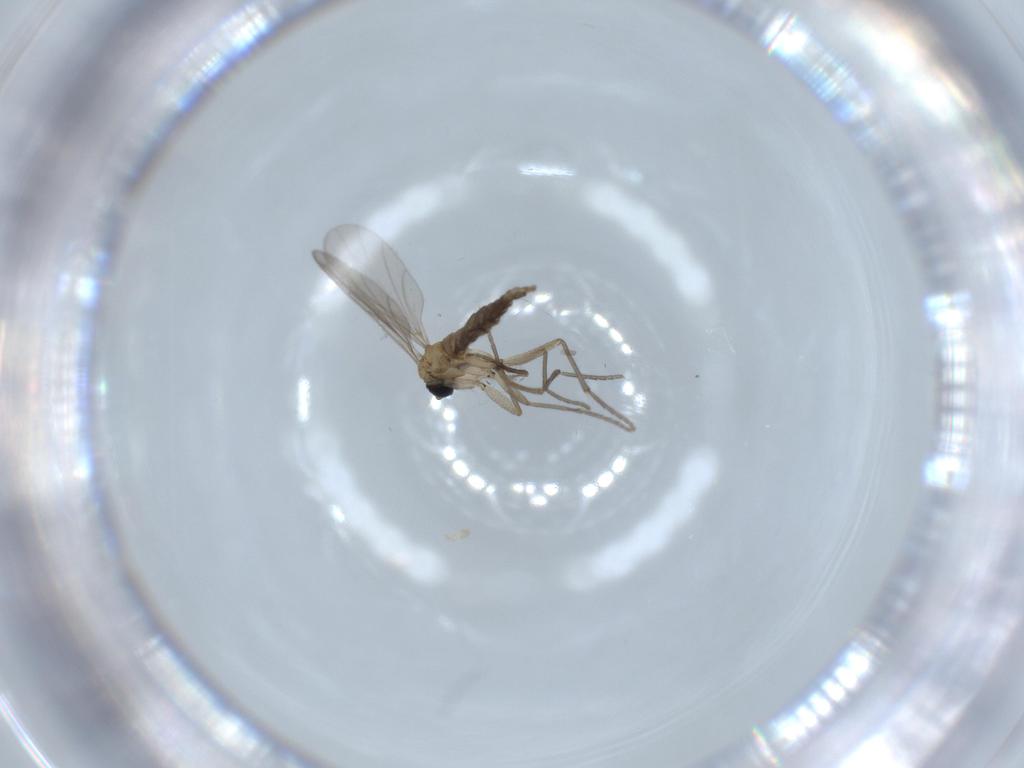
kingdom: Animalia
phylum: Arthropoda
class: Insecta
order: Diptera
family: Sciaridae
